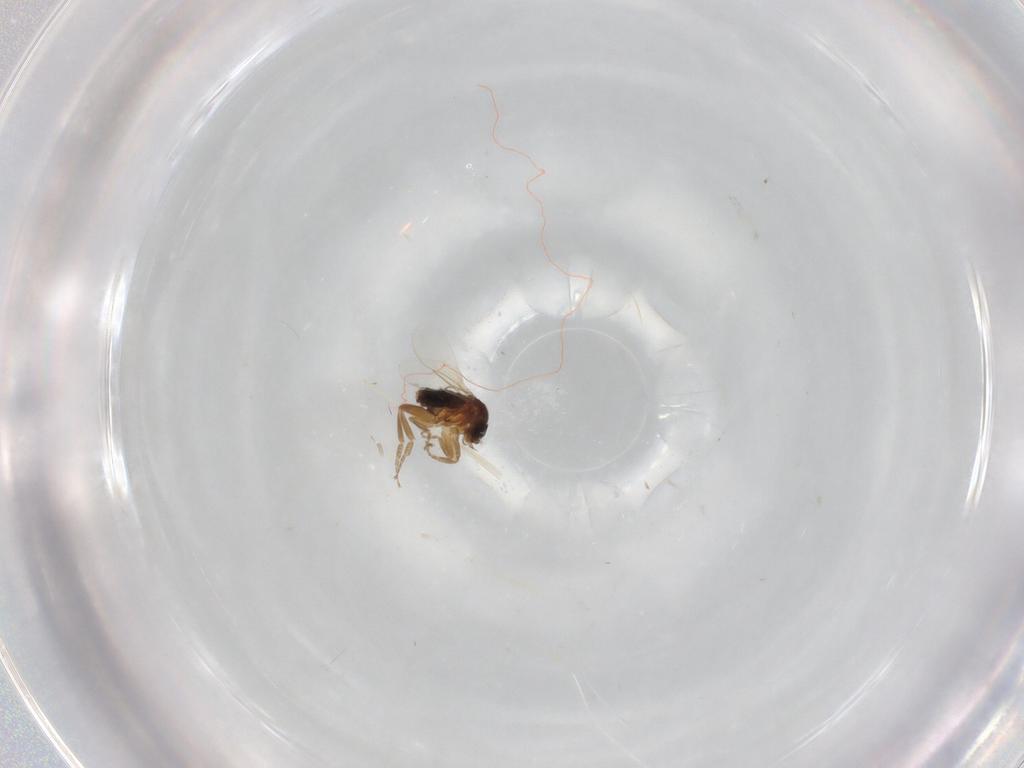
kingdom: Animalia
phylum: Arthropoda
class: Insecta
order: Diptera
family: Phoridae
